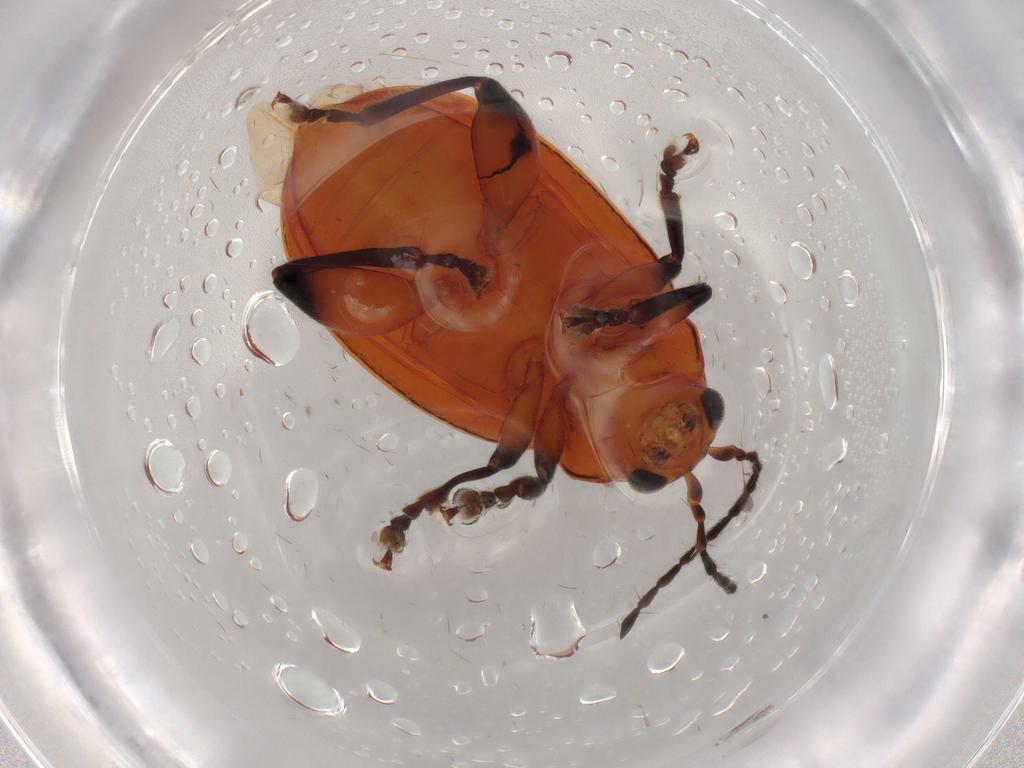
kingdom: Animalia
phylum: Arthropoda
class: Insecta
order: Coleoptera
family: Chrysomelidae
